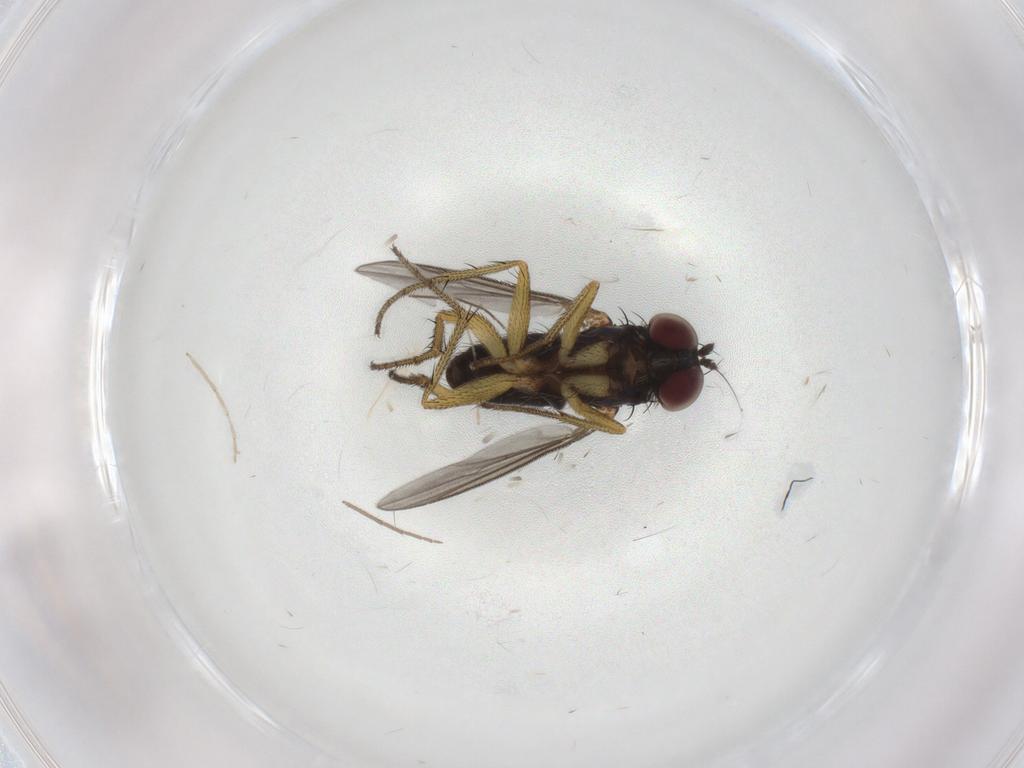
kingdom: Animalia
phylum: Arthropoda
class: Insecta
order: Diptera
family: Chironomidae
